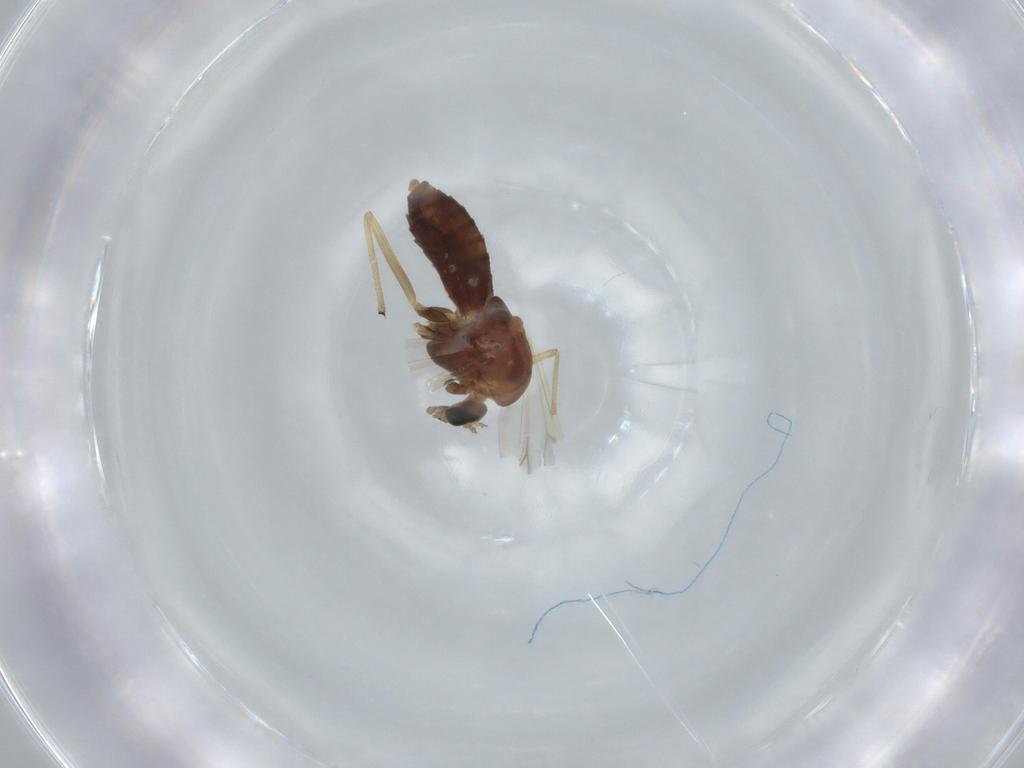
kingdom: Animalia
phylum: Arthropoda
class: Insecta
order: Diptera
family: Chironomidae
